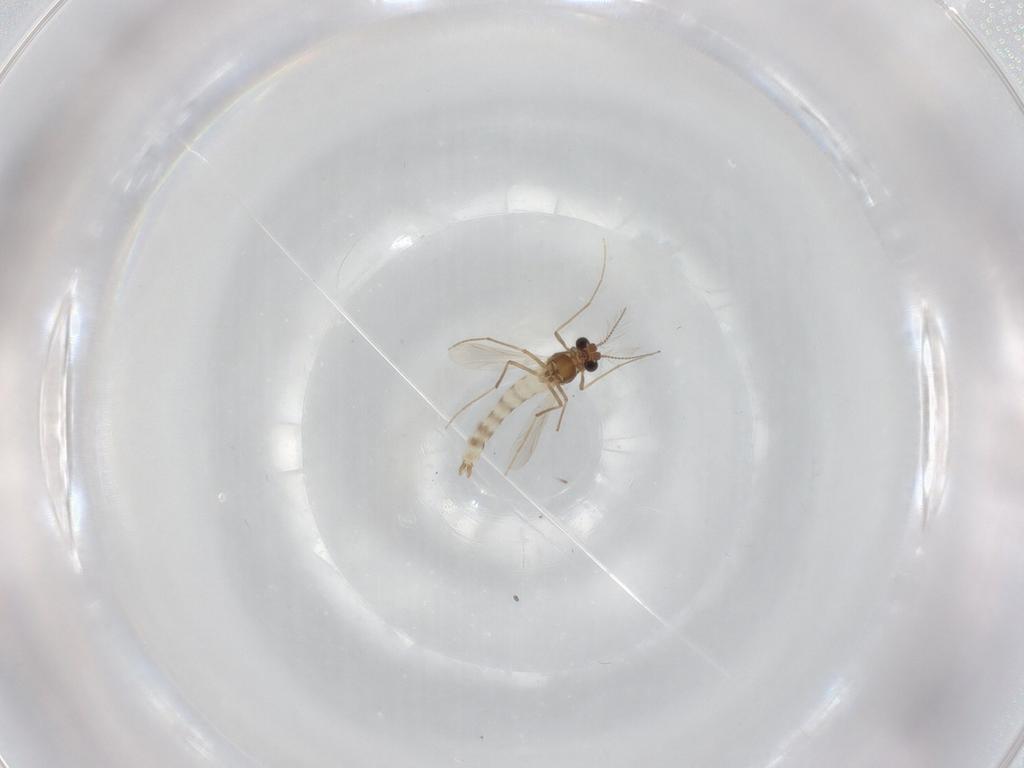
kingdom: Animalia
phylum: Arthropoda
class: Insecta
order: Diptera
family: Chironomidae
